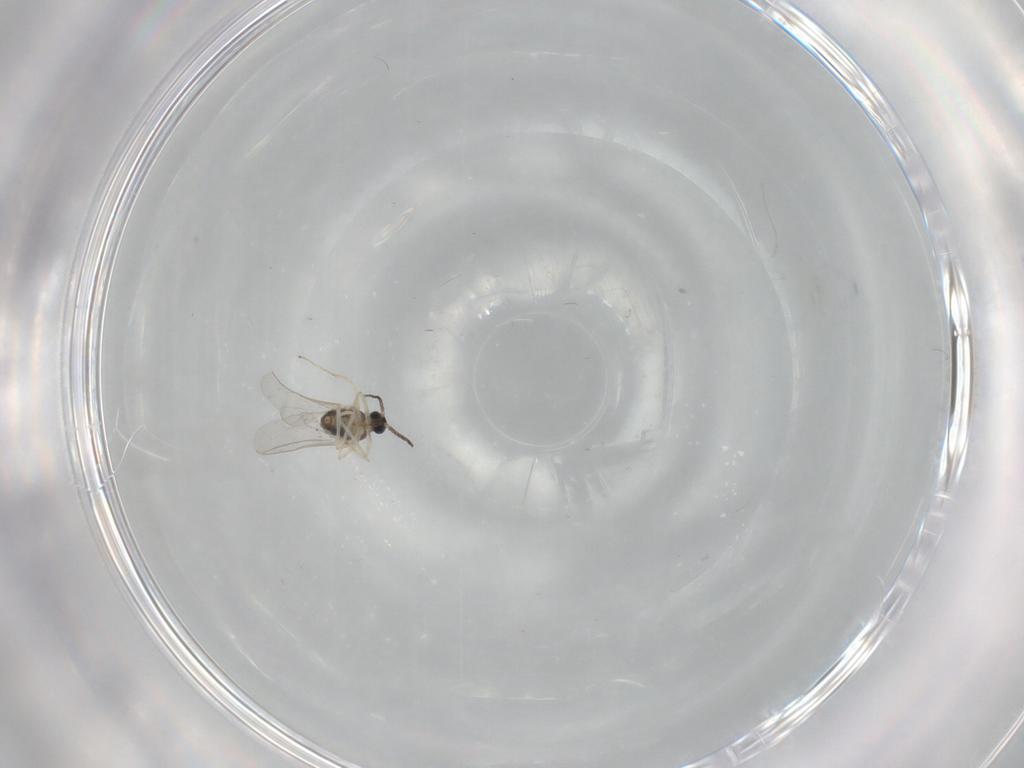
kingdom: Animalia
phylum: Arthropoda
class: Insecta
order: Diptera
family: Cecidomyiidae
